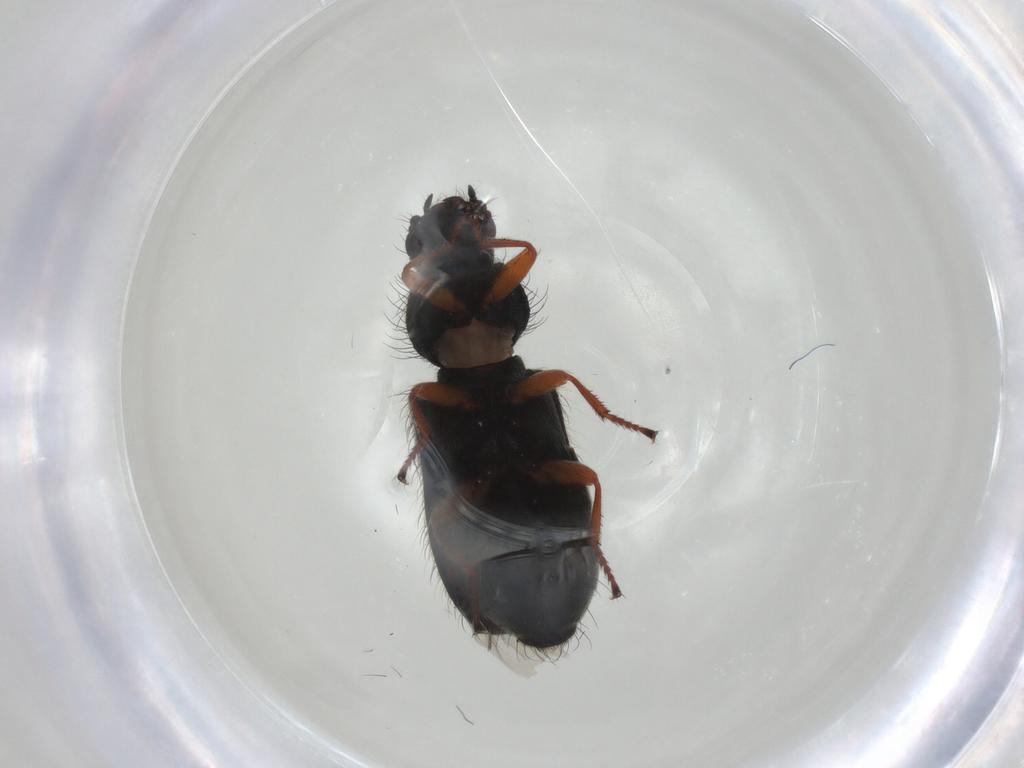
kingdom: Animalia
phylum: Arthropoda
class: Insecta
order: Coleoptera
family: Melyridae
